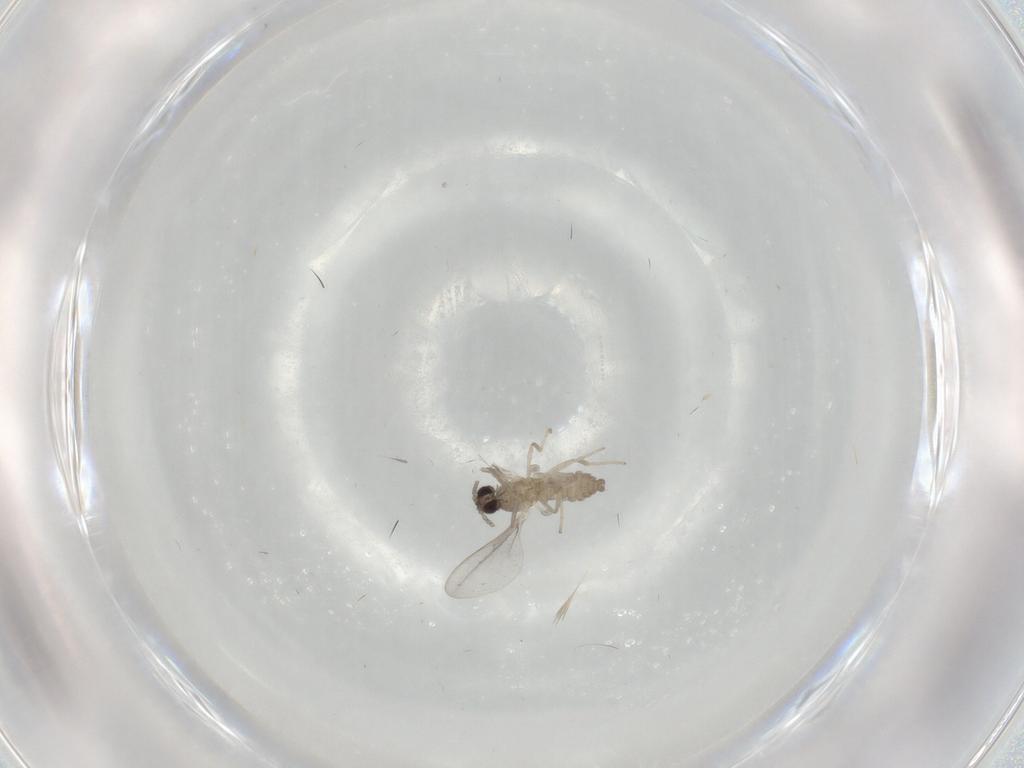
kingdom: Animalia
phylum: Arthropoda
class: Insecta
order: Diptera
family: Cecidomyiidae
